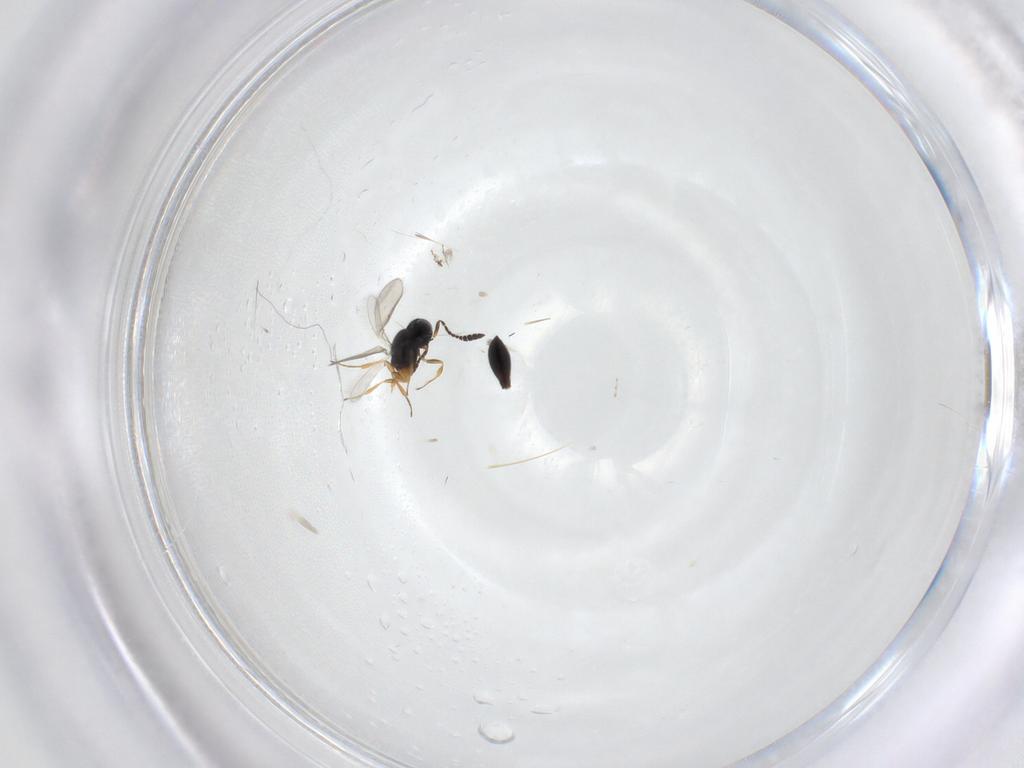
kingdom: Animalia
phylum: Arthropoda
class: Insecta
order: Hymenoptera
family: Scelionidae
